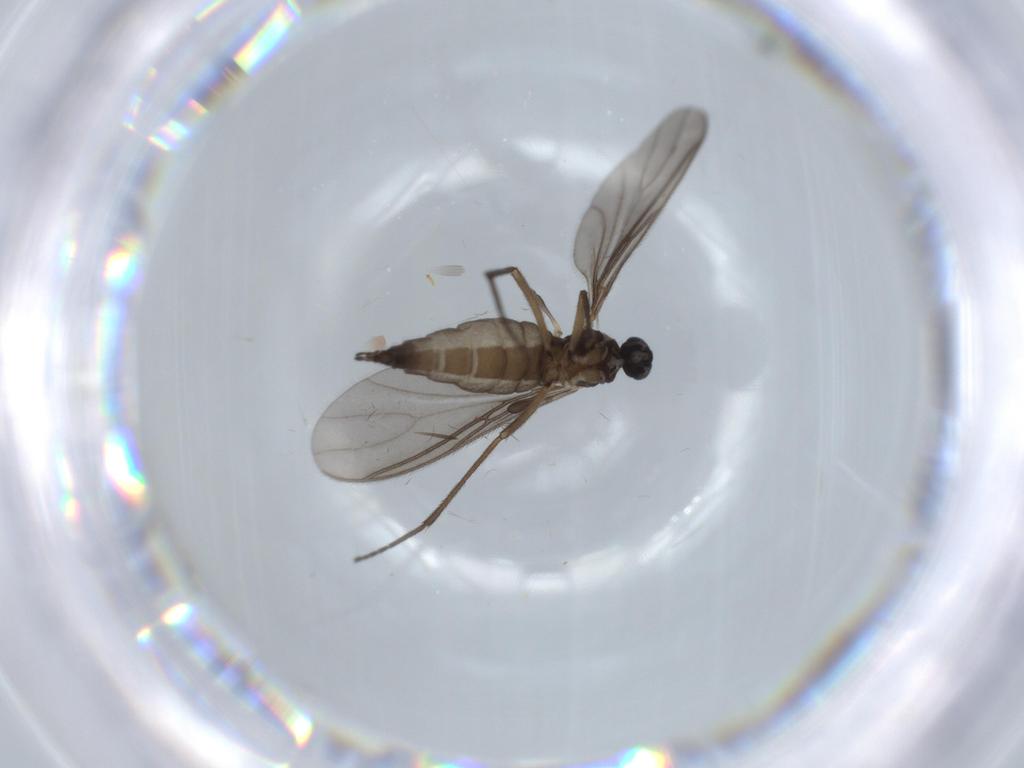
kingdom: Animalia
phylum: Arthropoda
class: Insecta
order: Diptera
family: Sciaridae
